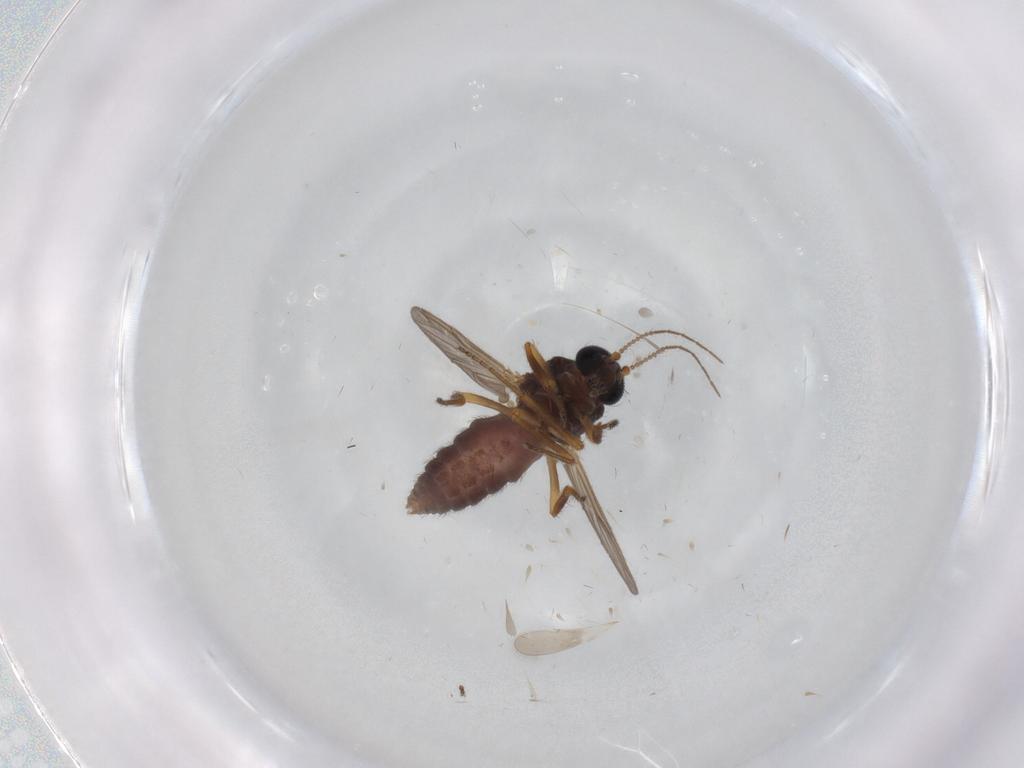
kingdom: Animalia
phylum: Arthropoda
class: Insecta
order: Diptera
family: Ceratopogonidae
